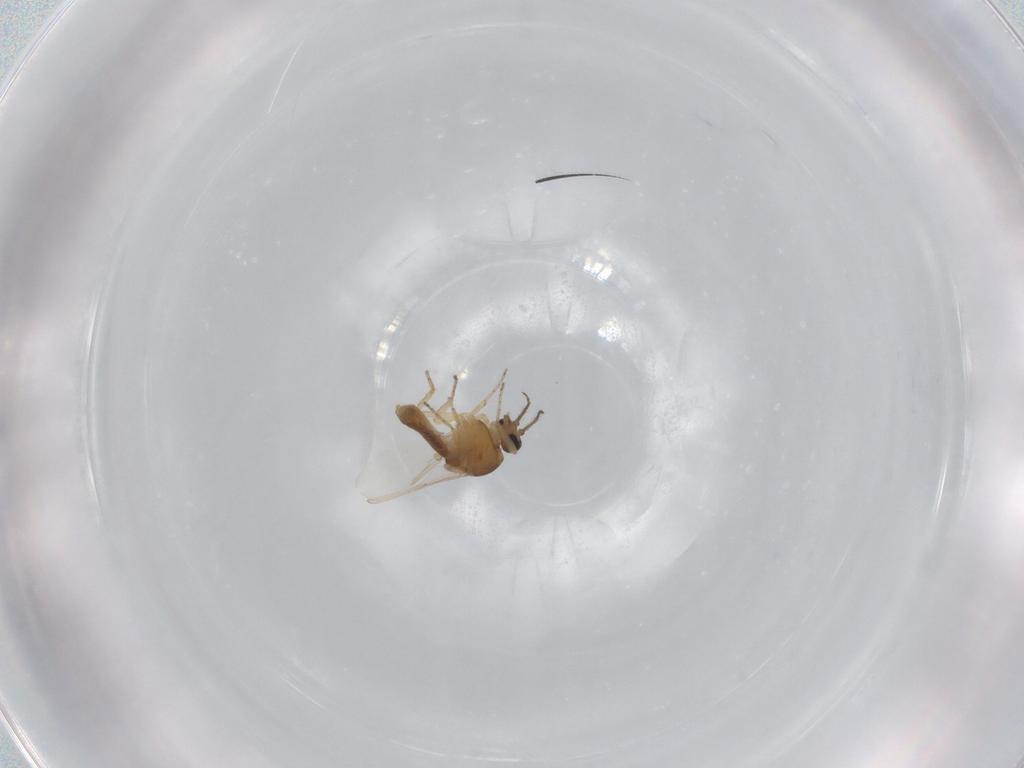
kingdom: Animalia
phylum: Arthropoda
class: Insecta
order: Diptera
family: Ceratopogonidae
